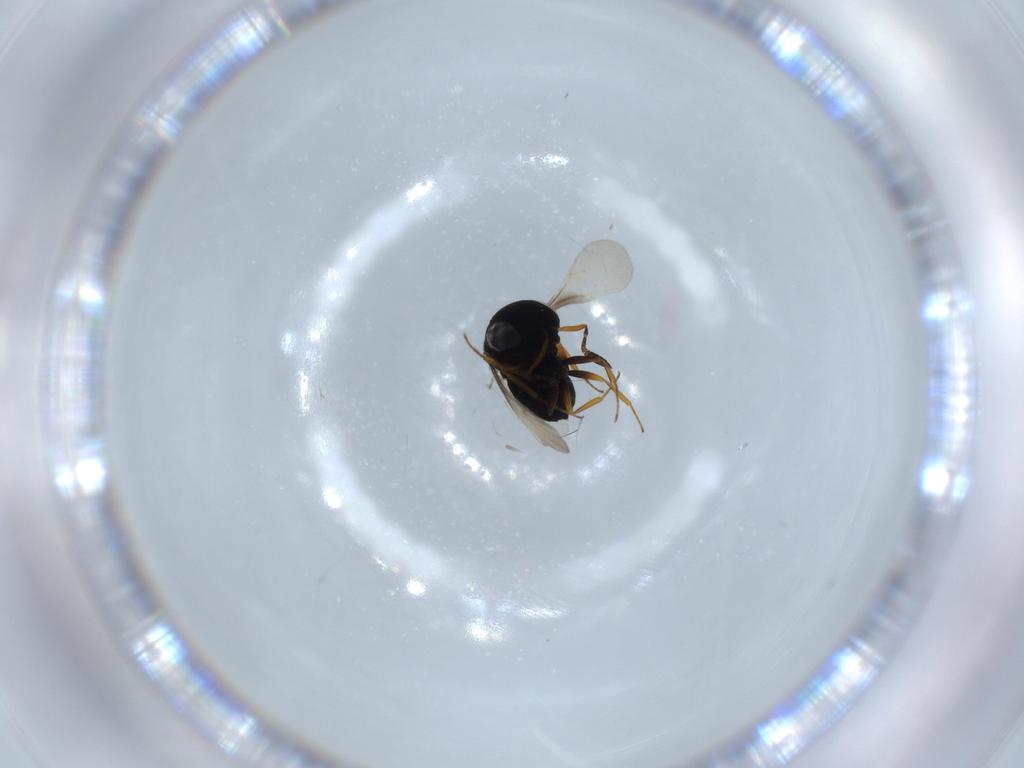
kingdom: Animalia
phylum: Arthropoda
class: Insecta
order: Hymenoptera
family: Scelionidae
